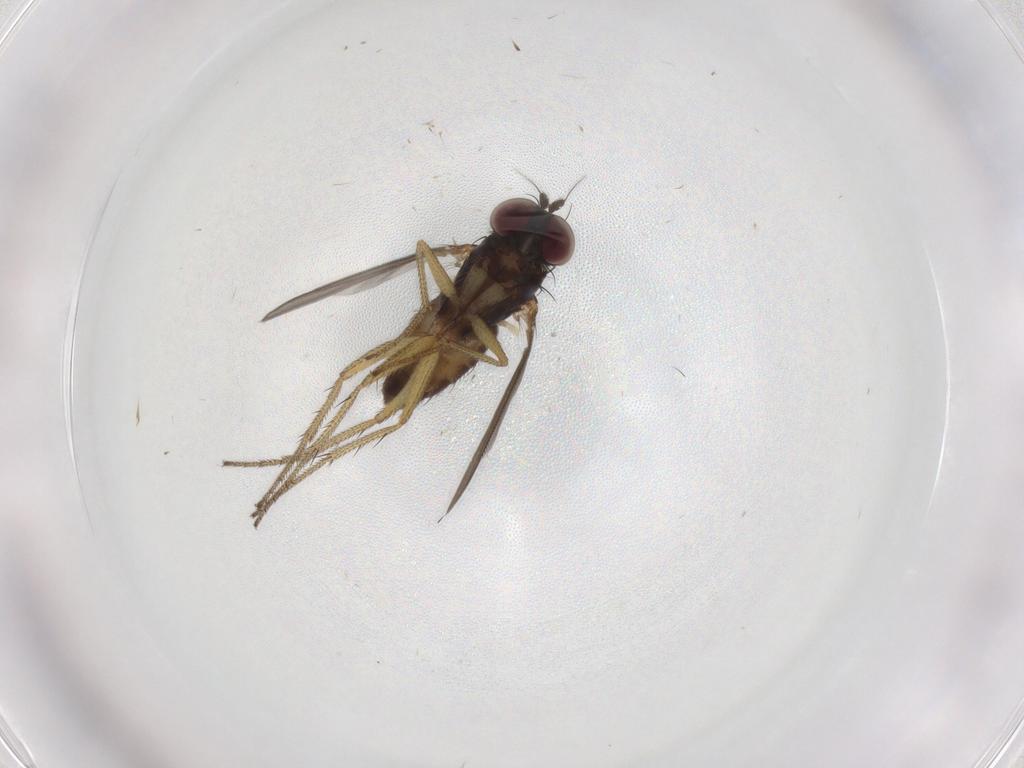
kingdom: Animalia
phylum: Arthropoda
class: Insecta
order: Diptera
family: Dolichopodidae
